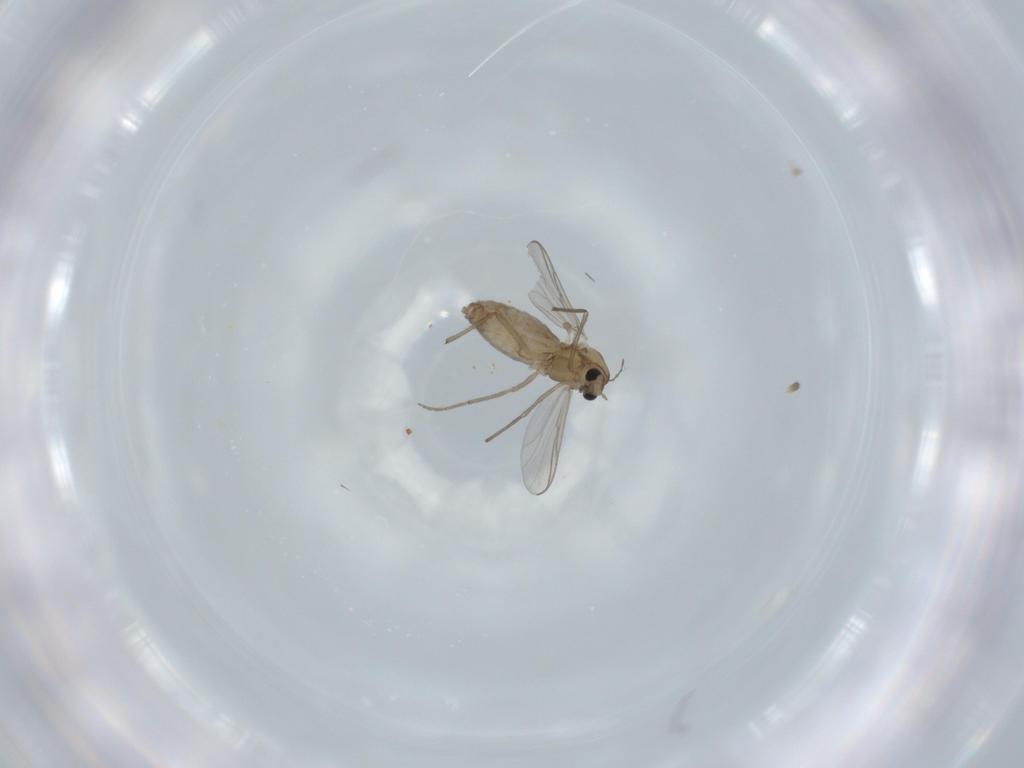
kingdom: Animalia
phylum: Arthropoda
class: Insecta
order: Diptera
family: Chironomidae
